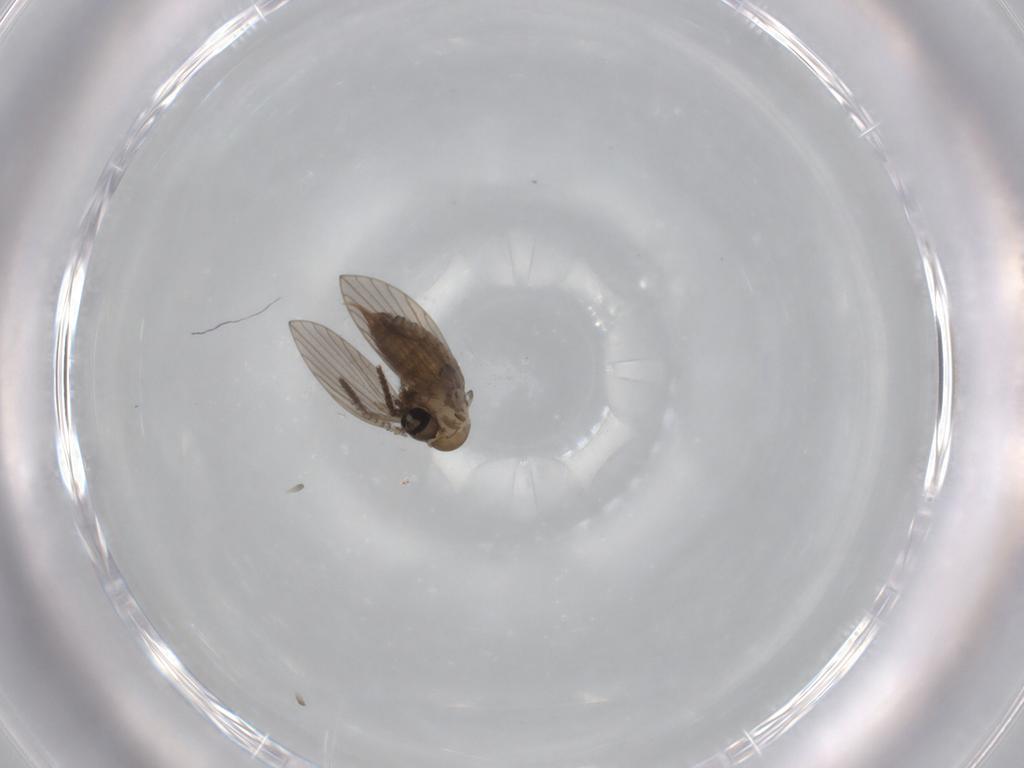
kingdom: Animalia
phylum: Arthropoda
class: Insecta
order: Diptera
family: Psychodidae
